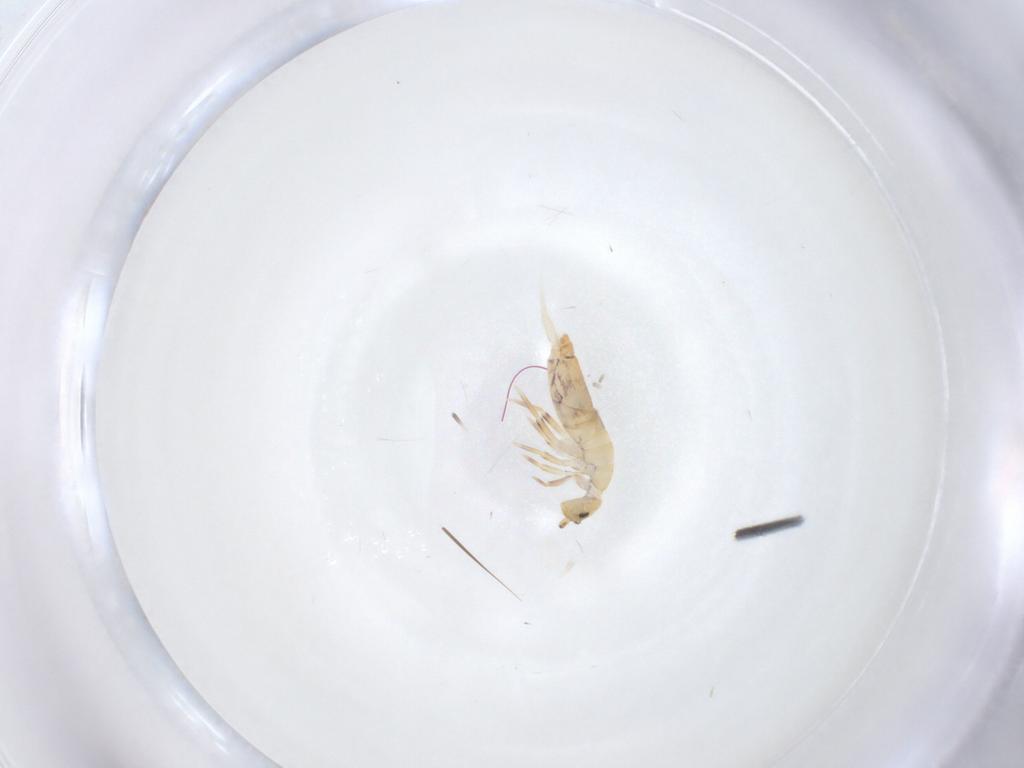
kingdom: Animalia
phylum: Arthropoda
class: Collembola
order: Entomobryomorpha
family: Entomobryidae
